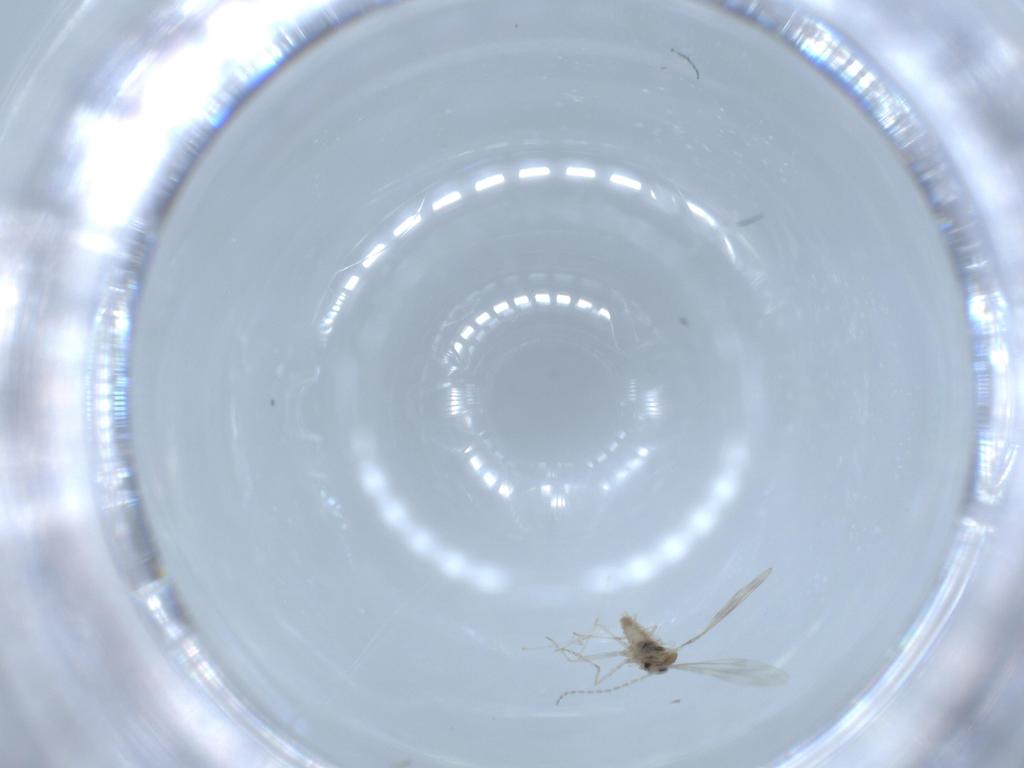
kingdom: Animalia
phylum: Arthropoda
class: Insecta
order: Diptera
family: Cecidomyiidae
